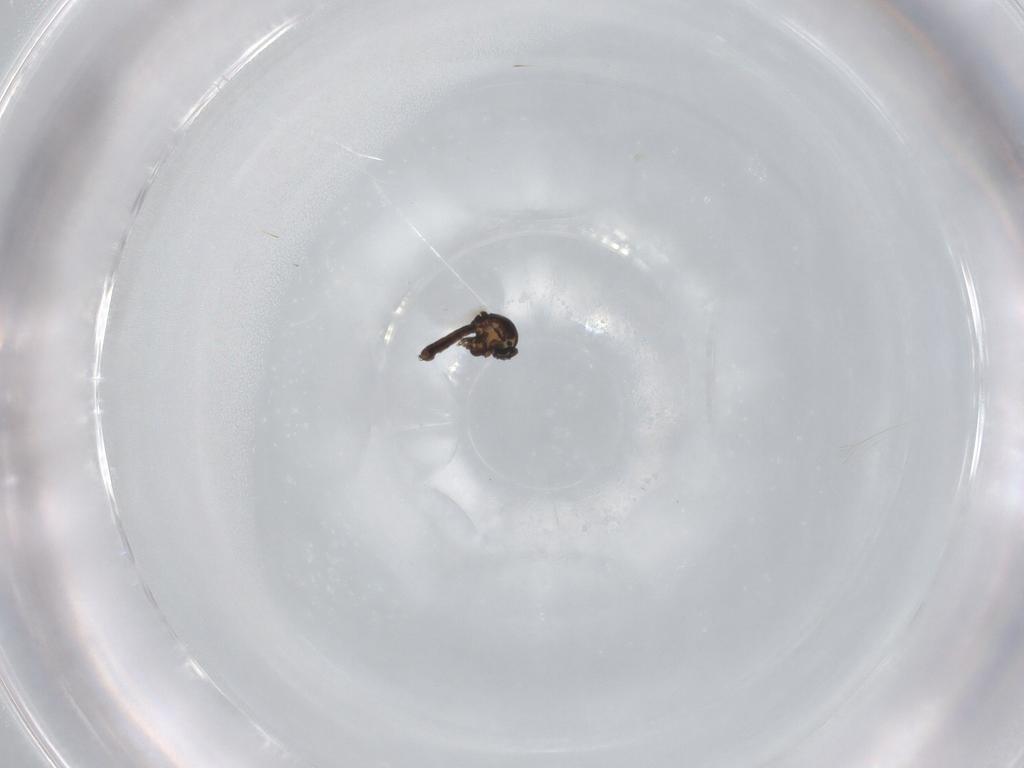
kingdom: Animalia
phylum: Arthropoda
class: Insecta
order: Diptera
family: Ceratopogonidae
